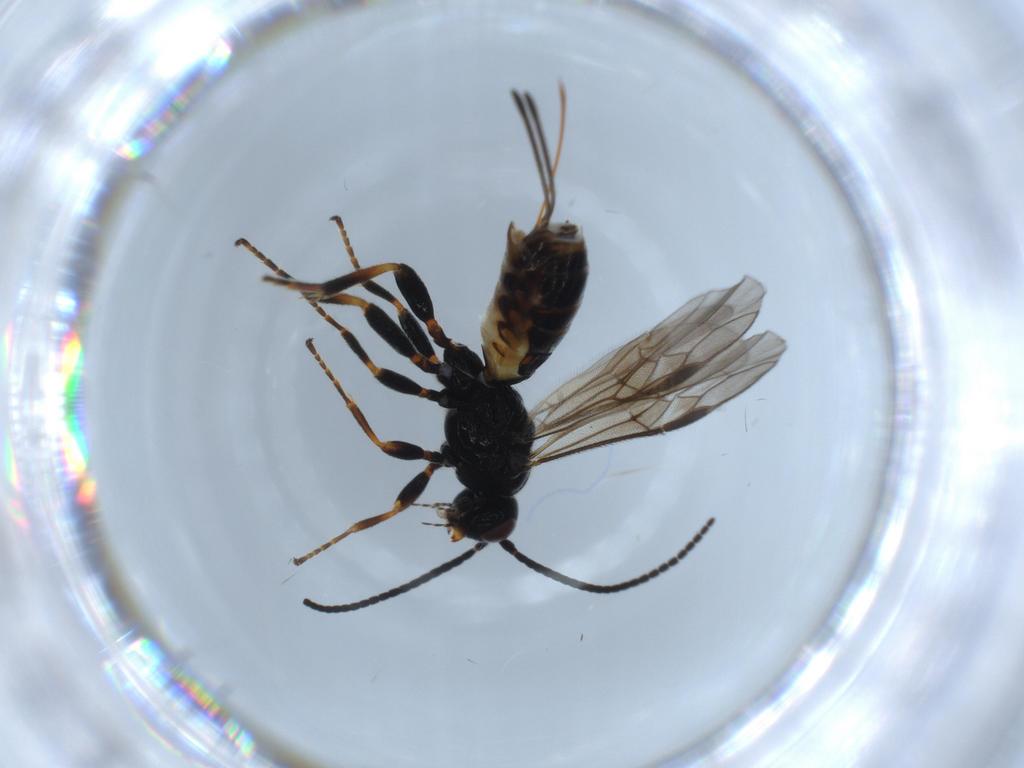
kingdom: Animalia
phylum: Arthropoda
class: Insecta
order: Hymenoptera
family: Braconidae
